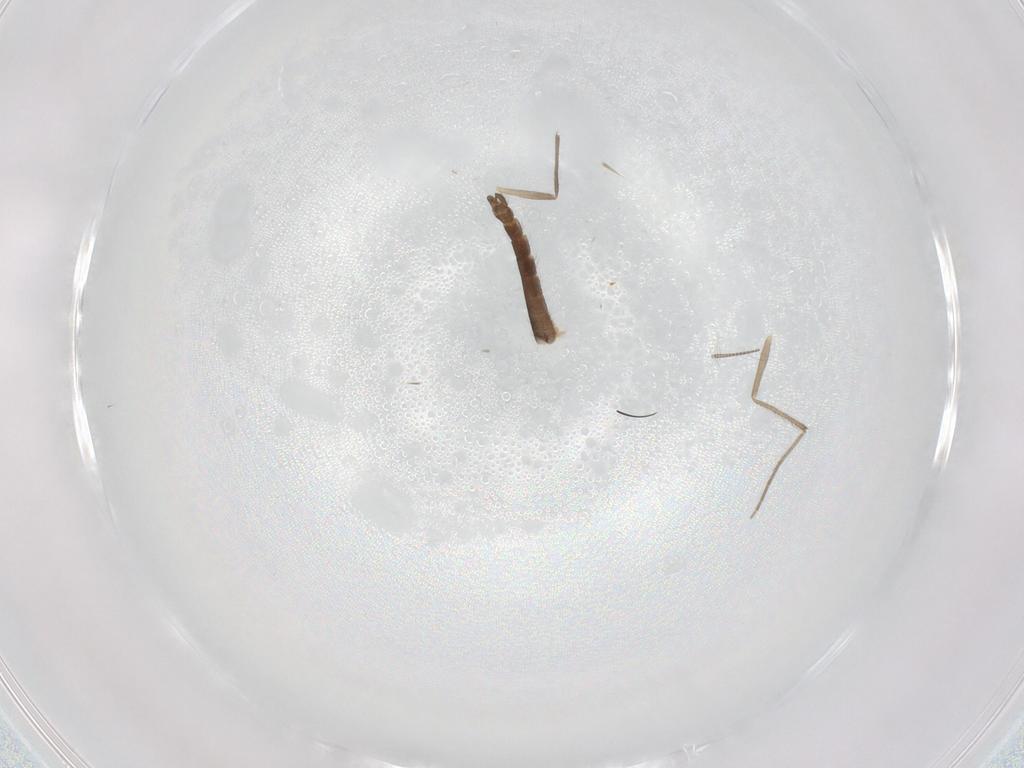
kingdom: Animalia
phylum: Arthropoda
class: Insecta
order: Diptera
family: Chironomidae
